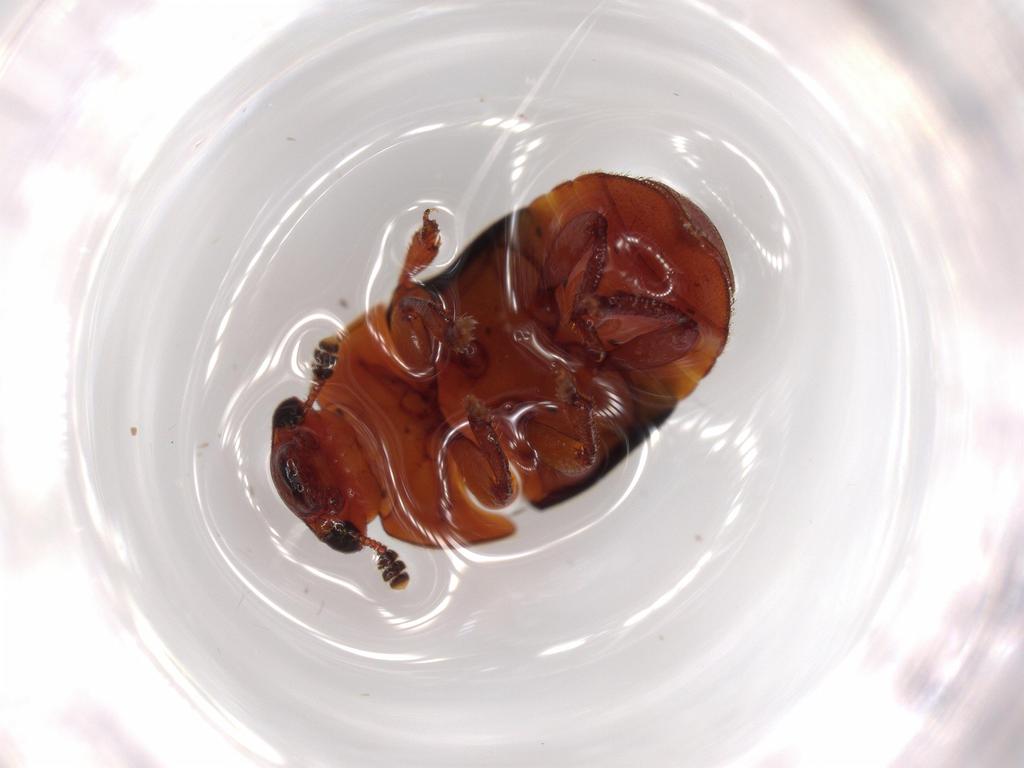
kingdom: Animalia
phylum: Arthropoda
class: Insecta
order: Coleoptera
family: Nitidulidae
